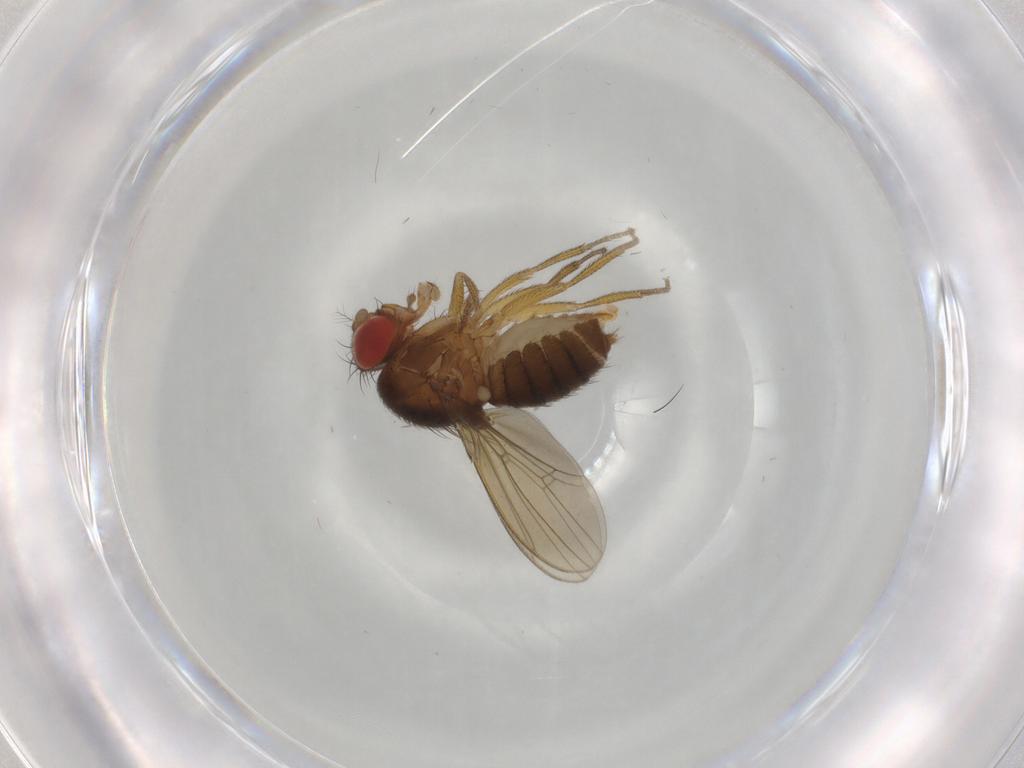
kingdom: Animalia
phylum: Arthropoda
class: Insecta
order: Diptera
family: Drosophilidae
